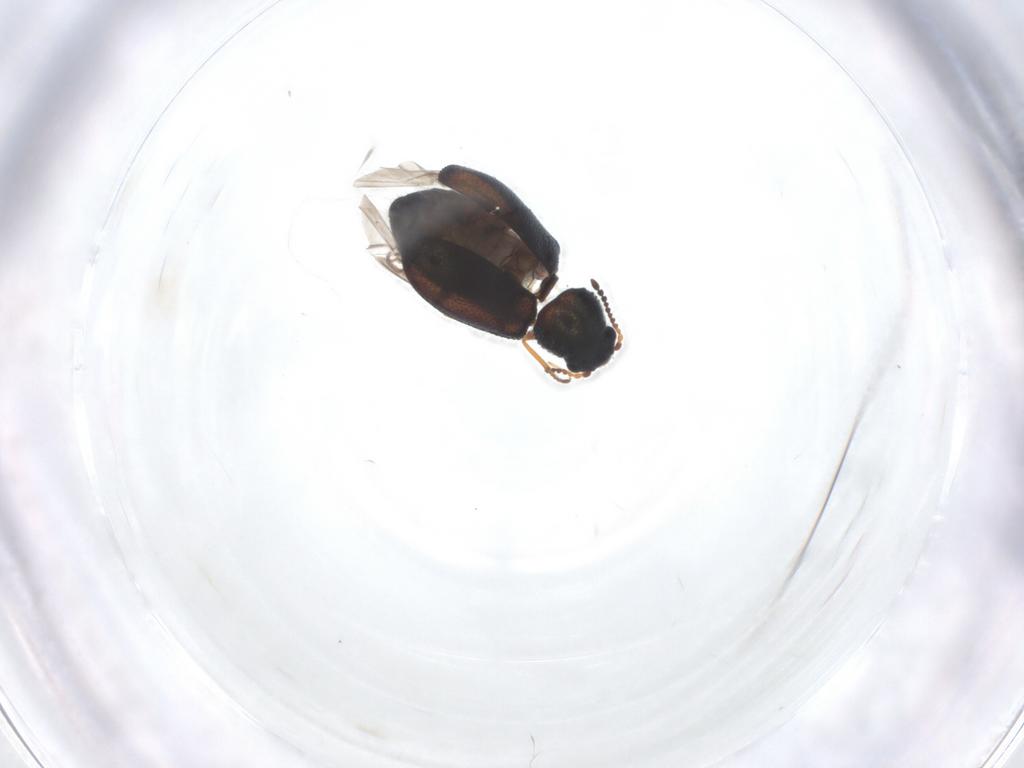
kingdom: Animalia
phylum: Arthropoda
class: Insecta
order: Coleoptera
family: Melyridae
